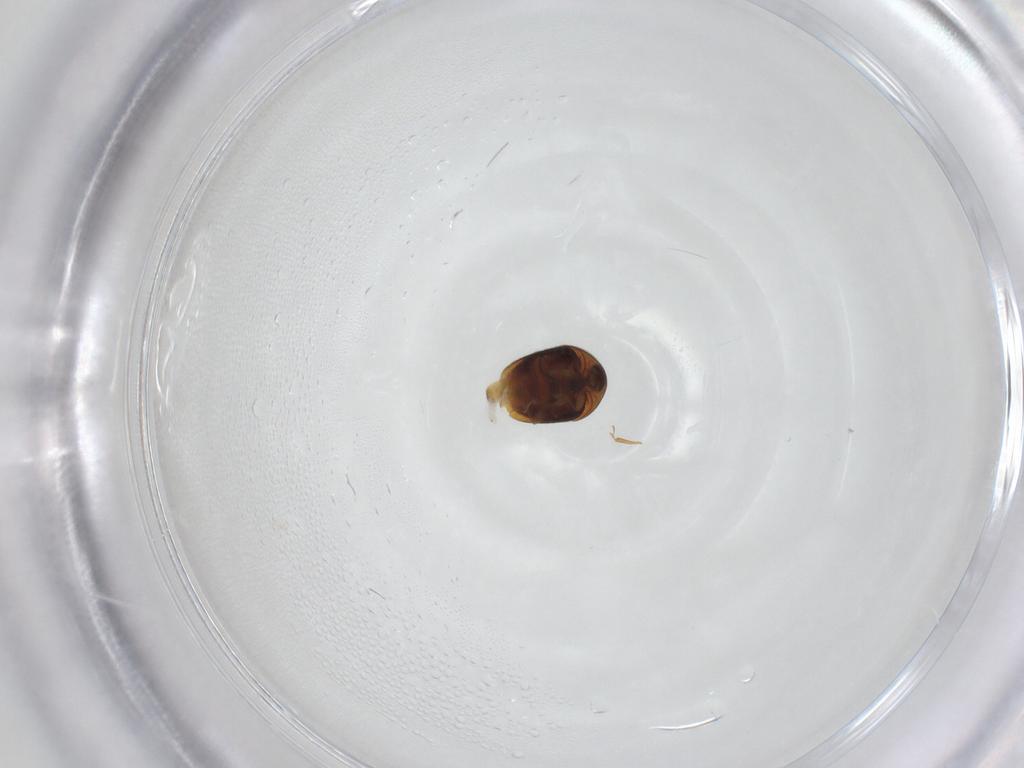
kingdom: Animalia
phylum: Arthropoda
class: Insecta
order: Coleoptera
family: Corylophidae
